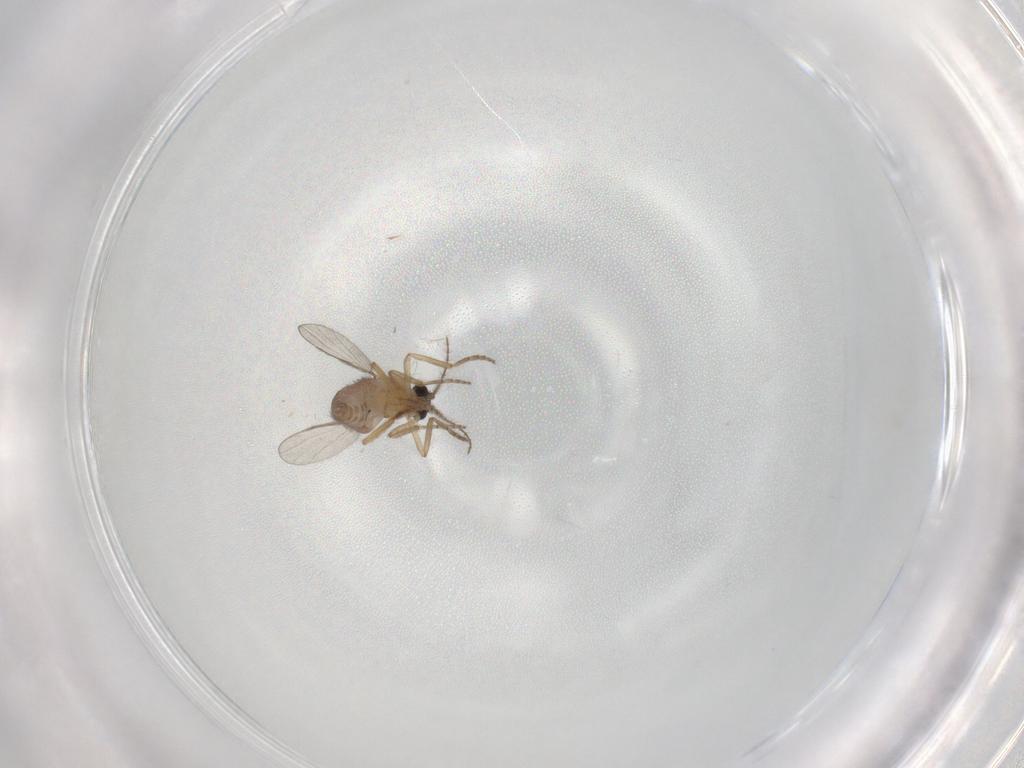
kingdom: Animalia
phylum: Arthropoda
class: Insecta
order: Diptera
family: Ceratopogonidae
